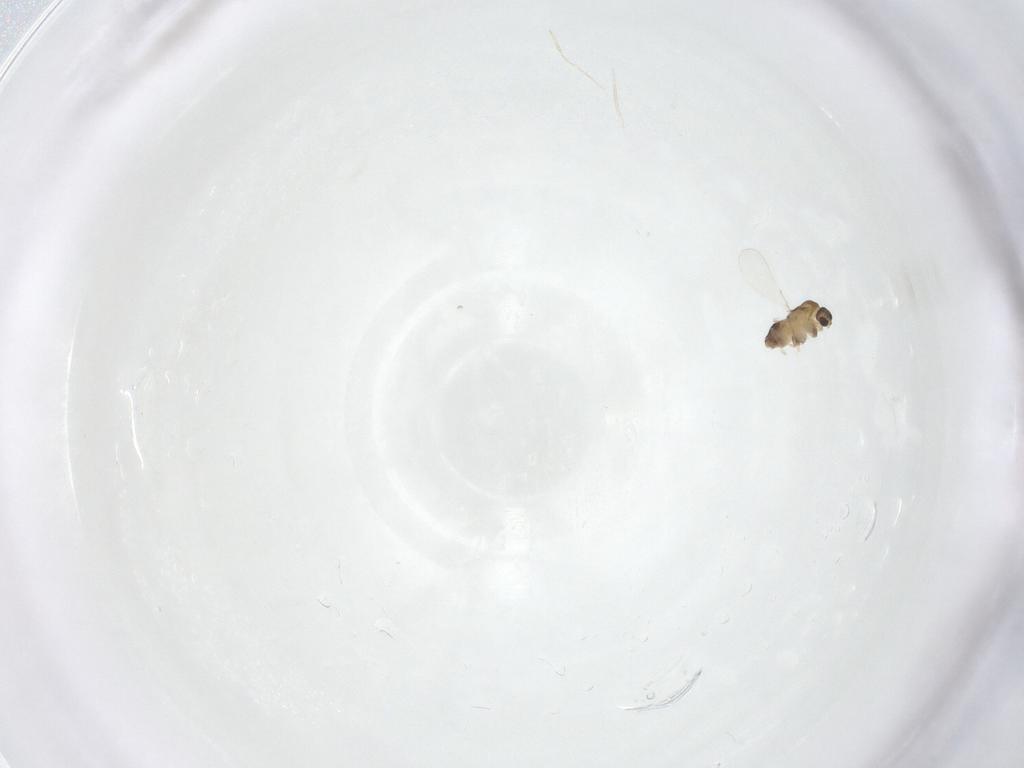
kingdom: Animalia
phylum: Arthropoda
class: Insecta
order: Diptera
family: Chironomidae
